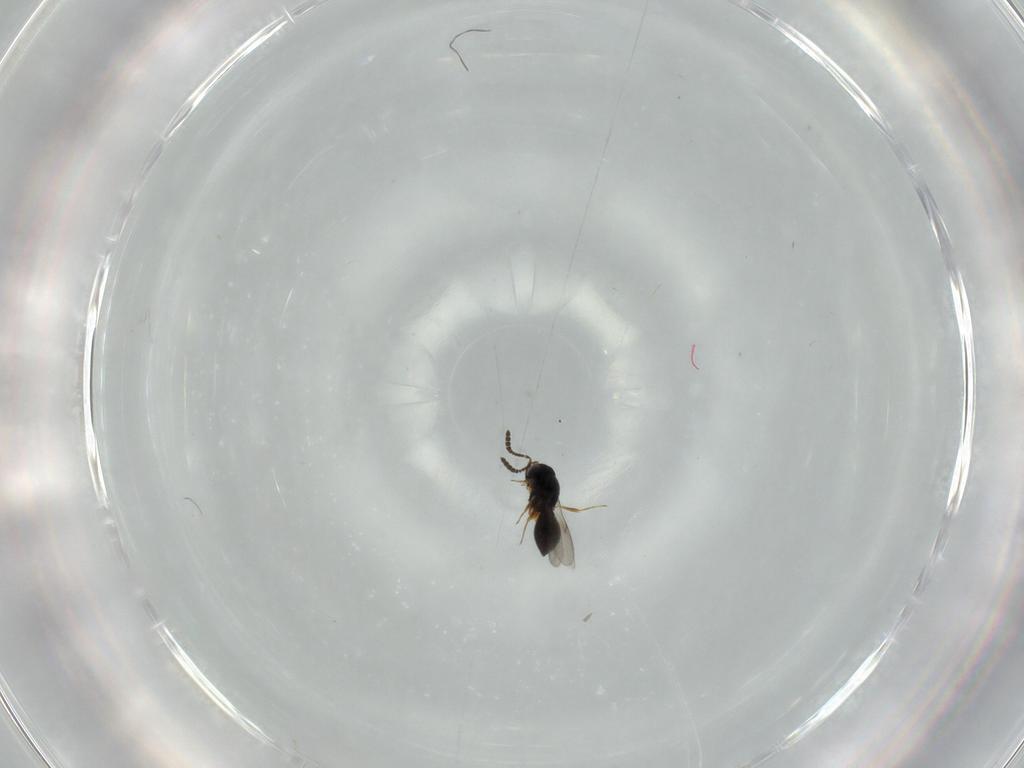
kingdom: Animalia
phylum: Arthropoda
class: Insecta
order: Hymenoptera
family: Scelionidae
